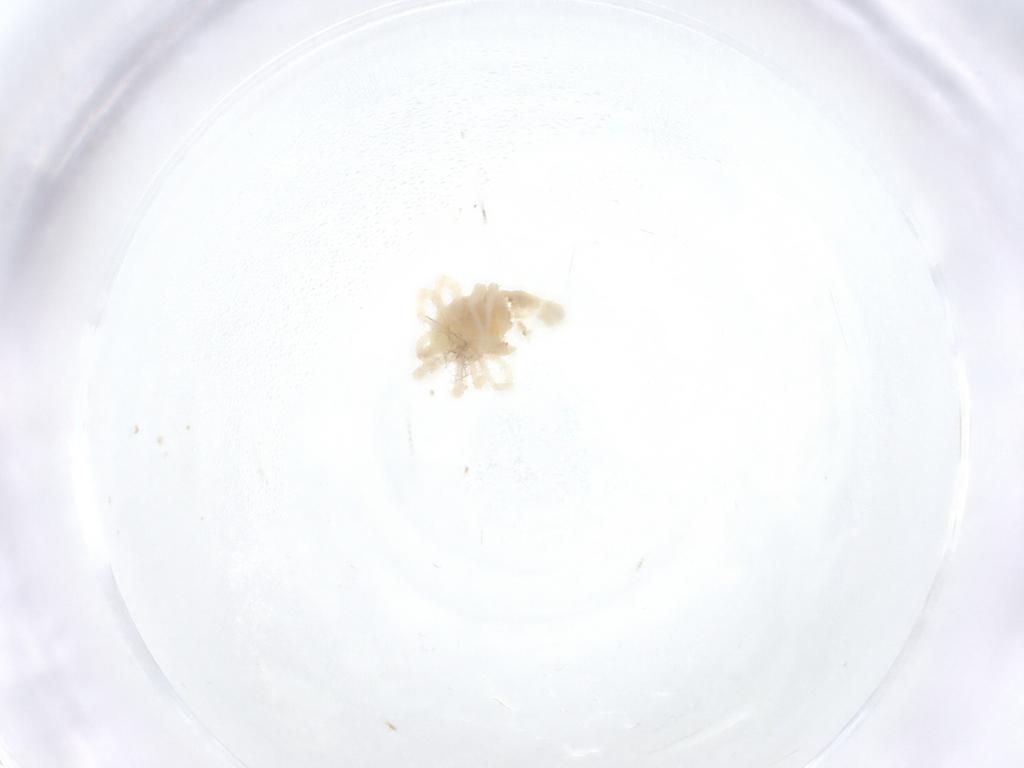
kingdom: Animalia
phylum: Arthropoda
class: Arachnida
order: Trombidiformes
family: Anystidae
